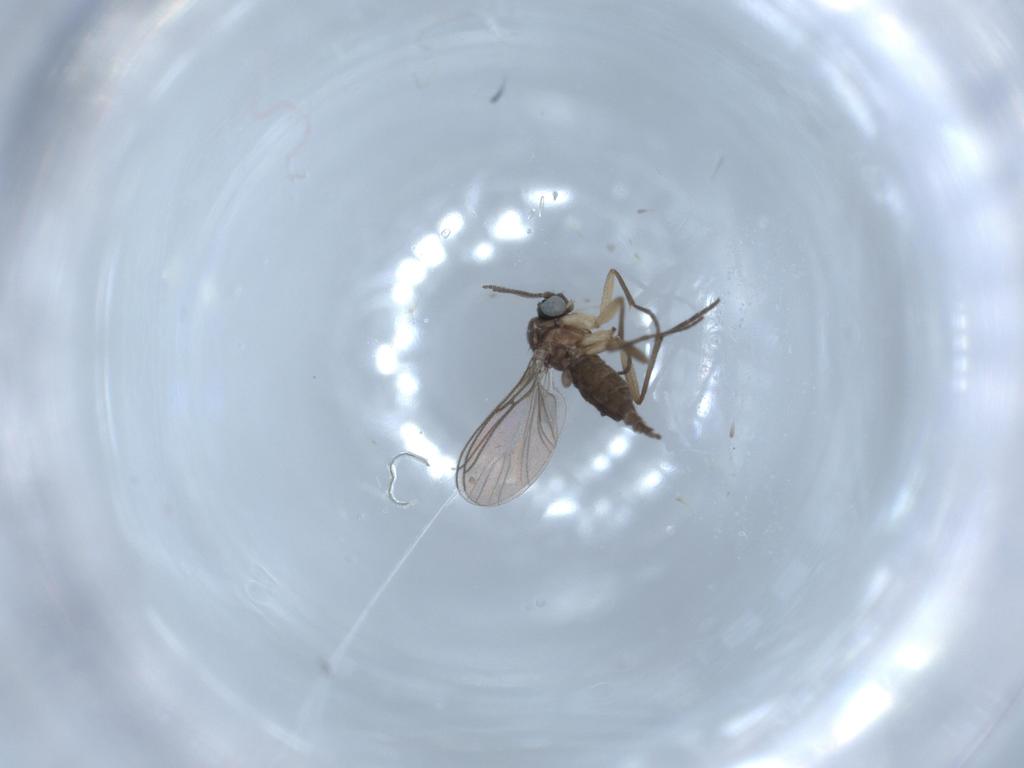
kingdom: Animalia
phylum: Arthropoda
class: Insecta
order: Diptera
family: Sciaridae
